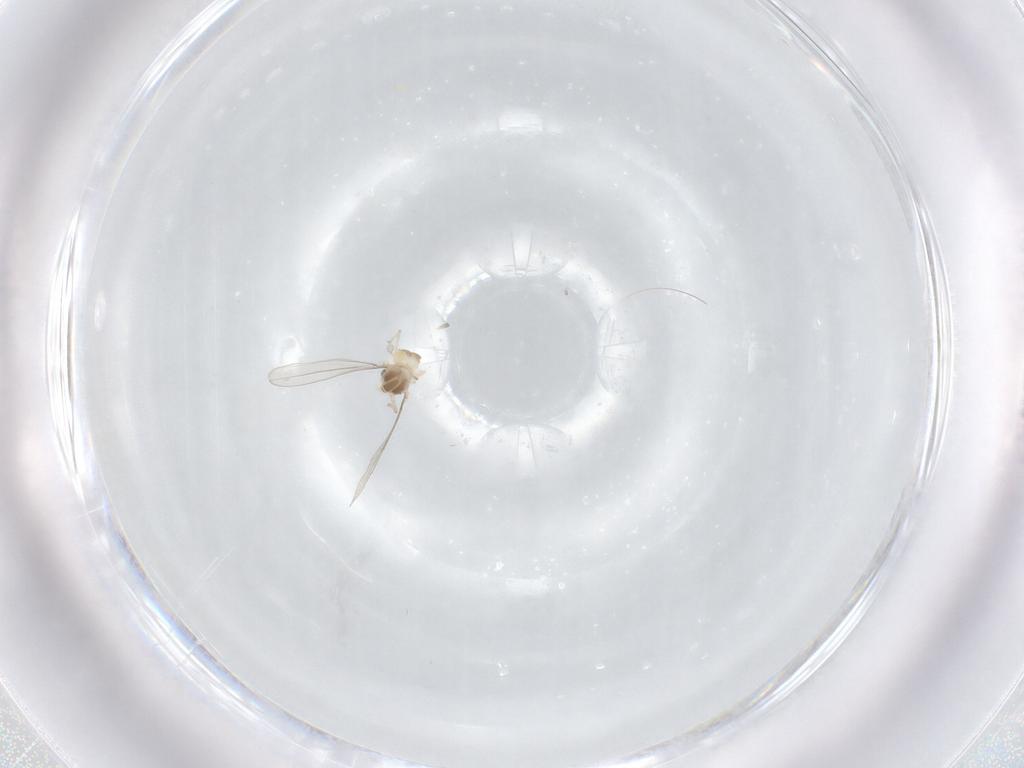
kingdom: Animalia
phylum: Arthropoda
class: Insecta
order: Diptera
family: Cecidomyiidae
